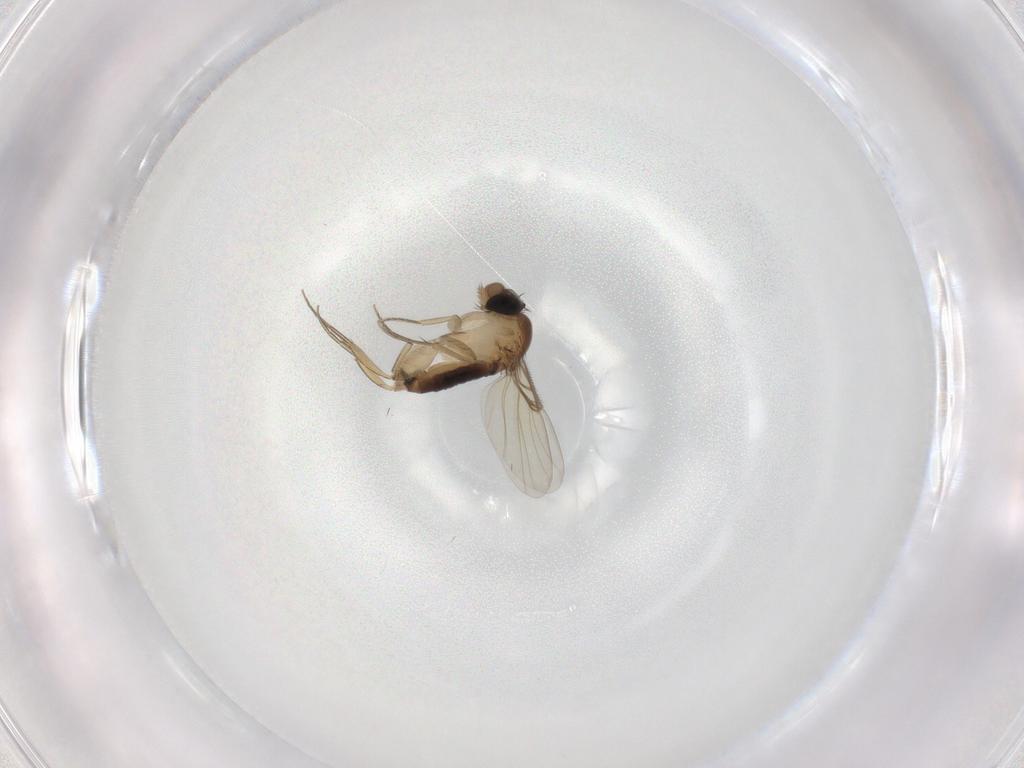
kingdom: Animalia
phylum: Arthropoda
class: Insecta
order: Diptera
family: Phoridae
